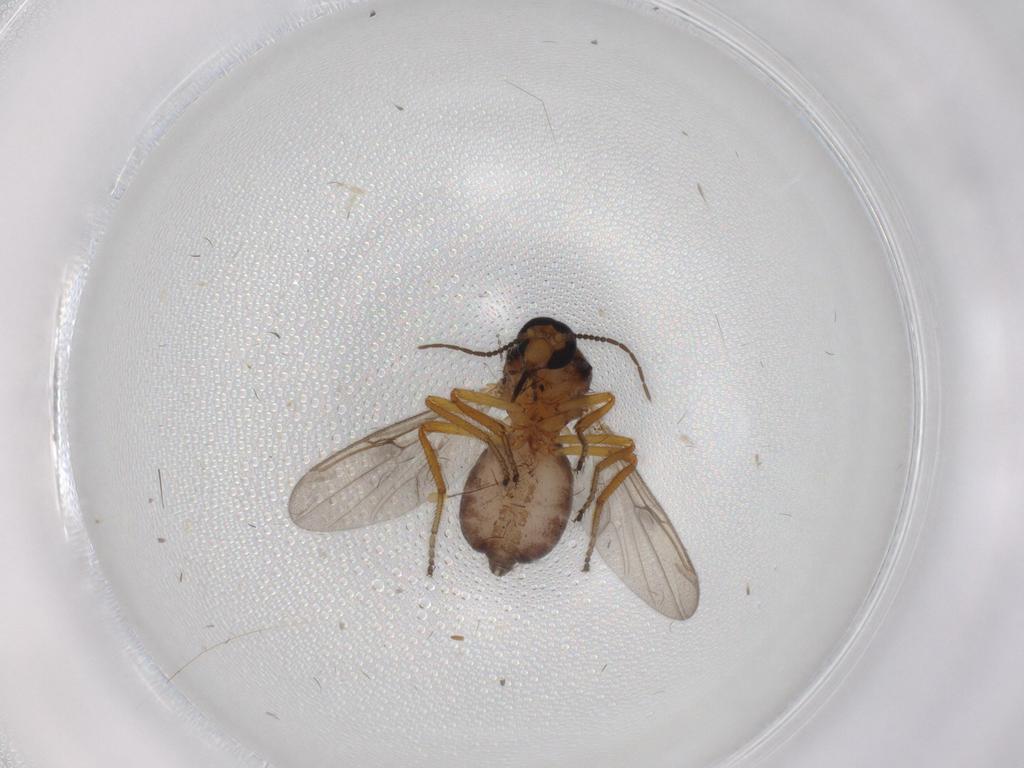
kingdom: Animalia
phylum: Arthropoda
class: Insecta
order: Diptera
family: Ceratopogonidae
